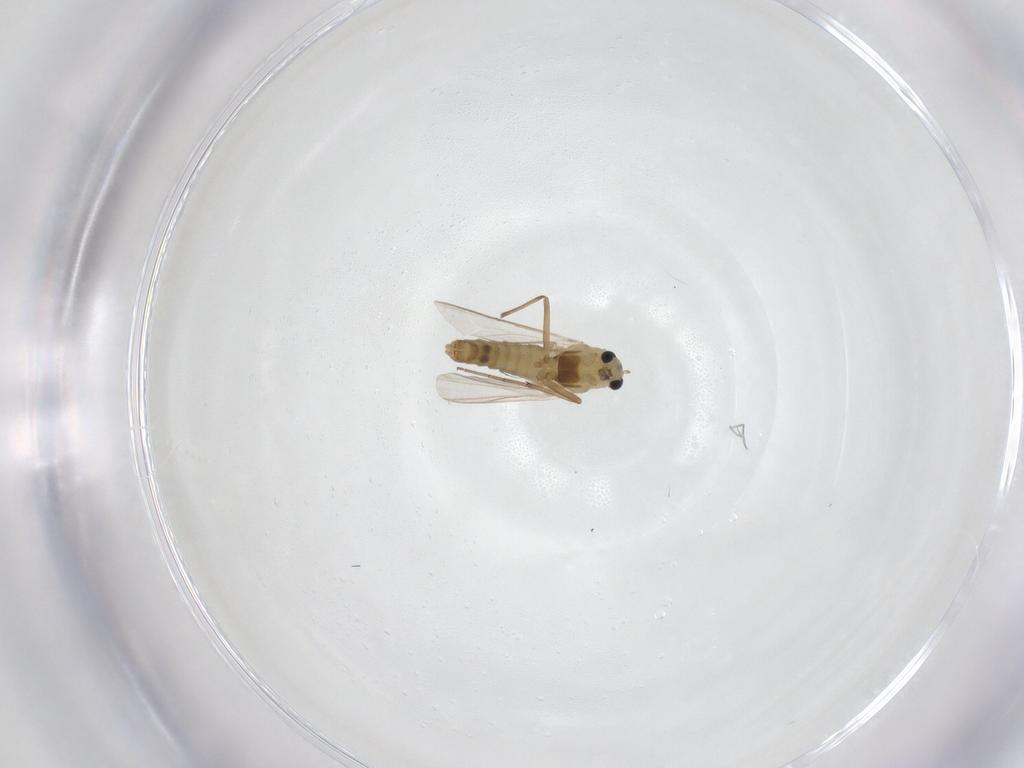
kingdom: Animalia
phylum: Arthropoda
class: Insecta
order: Diptera
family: Chironomidae
